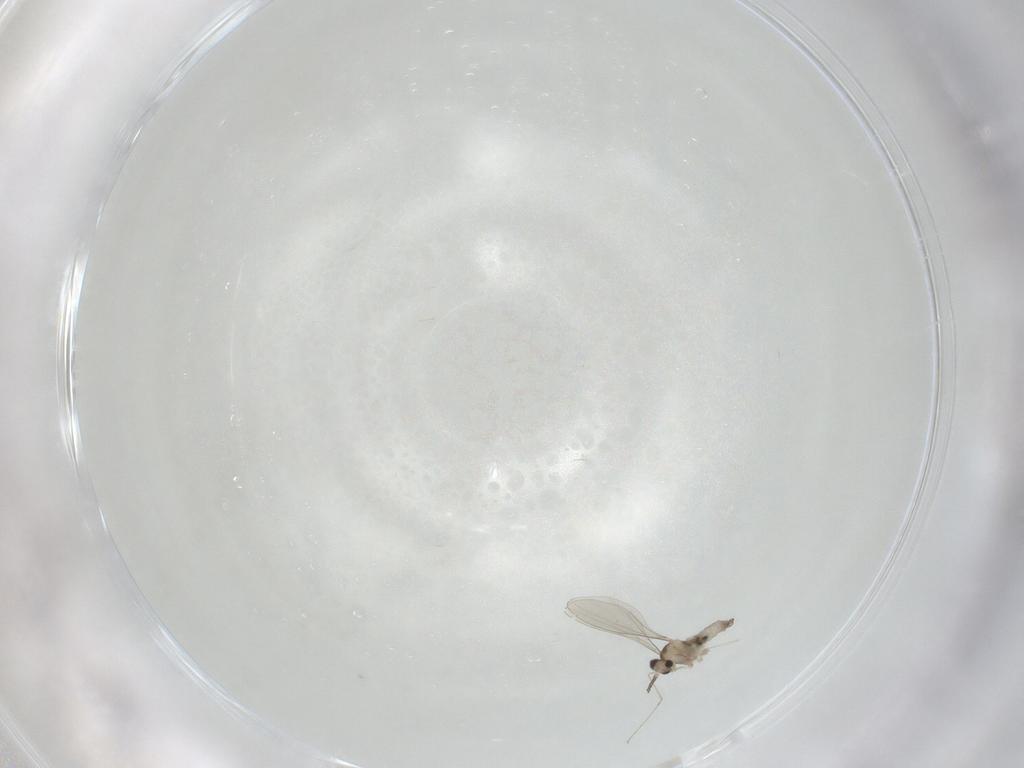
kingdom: Animalia
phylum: Arthropoda
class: Insecta
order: Diptera
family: Cecidomyiidae
